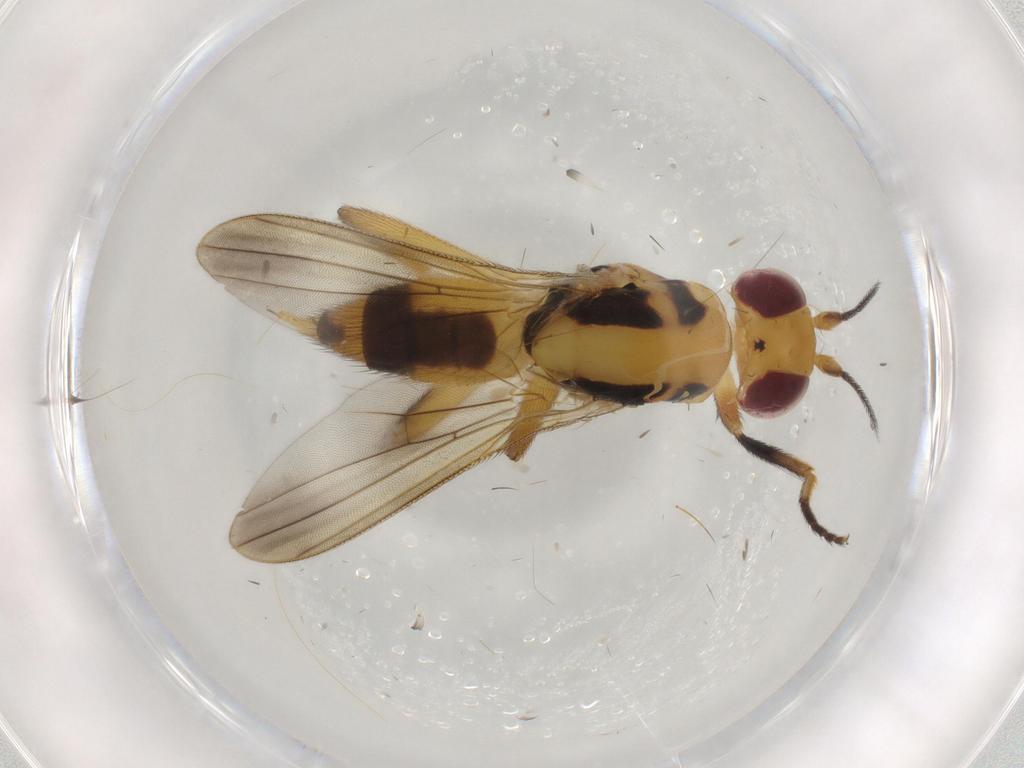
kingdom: Animalia
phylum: Arthropoda
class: Insecta
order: Diptera
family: Clusiidae
